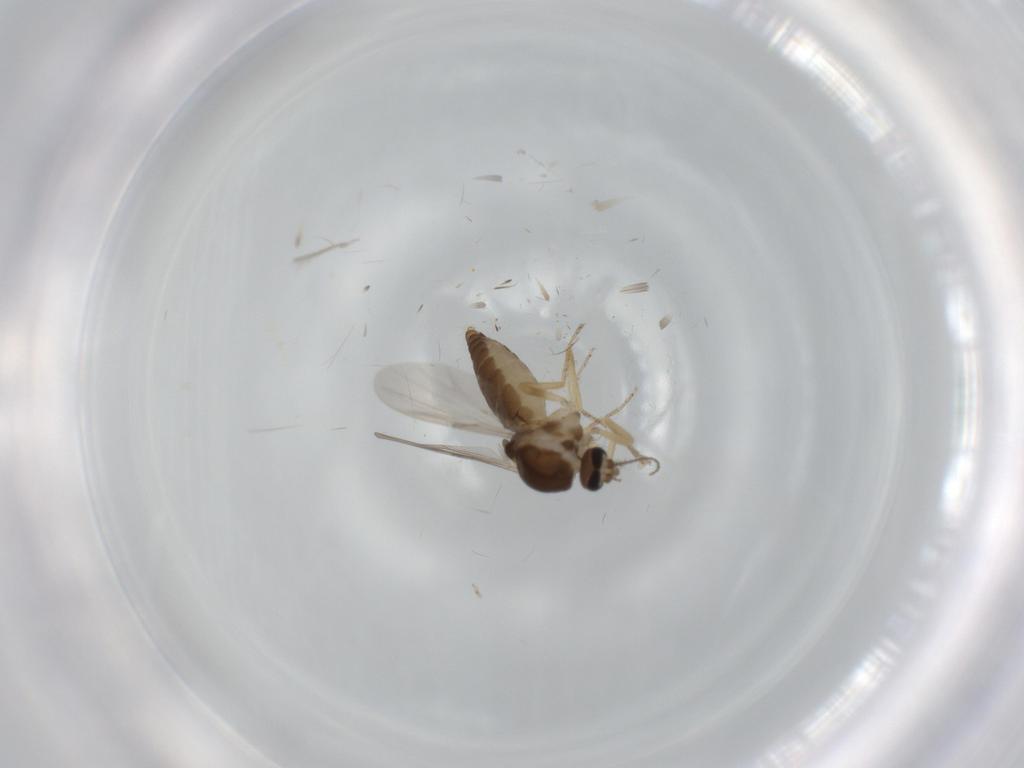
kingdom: Animalia
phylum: Arthropoda
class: Insecta
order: Diptera
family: Ceratopogonidae
